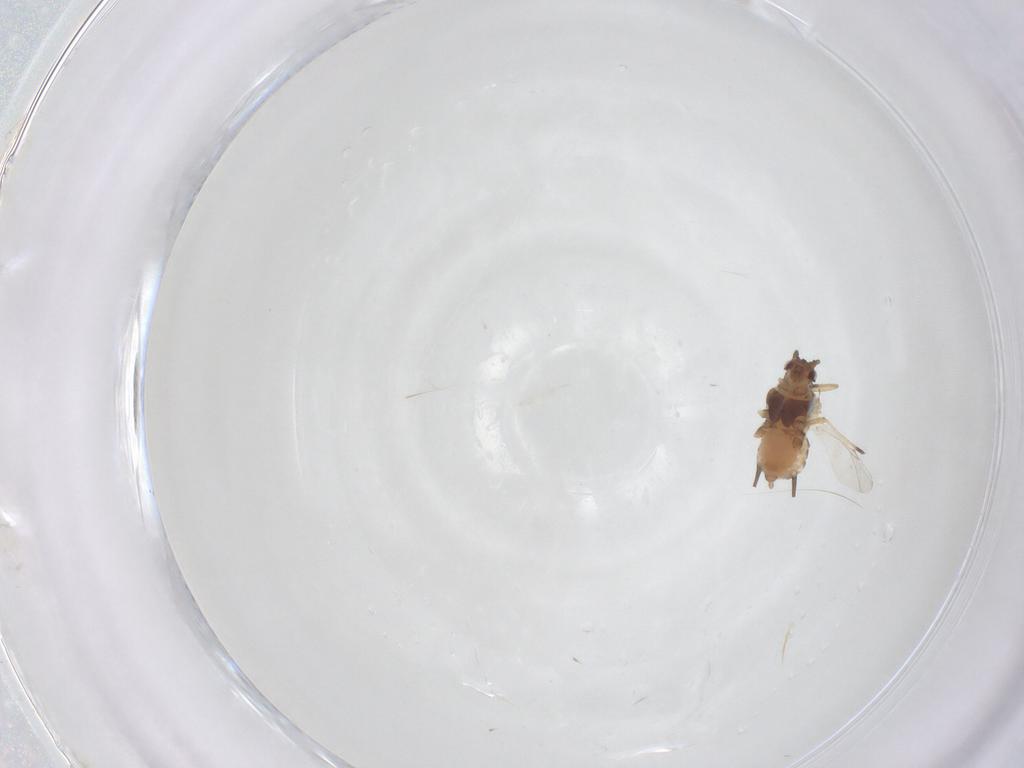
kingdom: Animalia
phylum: Arthropoda
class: Insecta
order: Hemiptera
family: Aphididae
